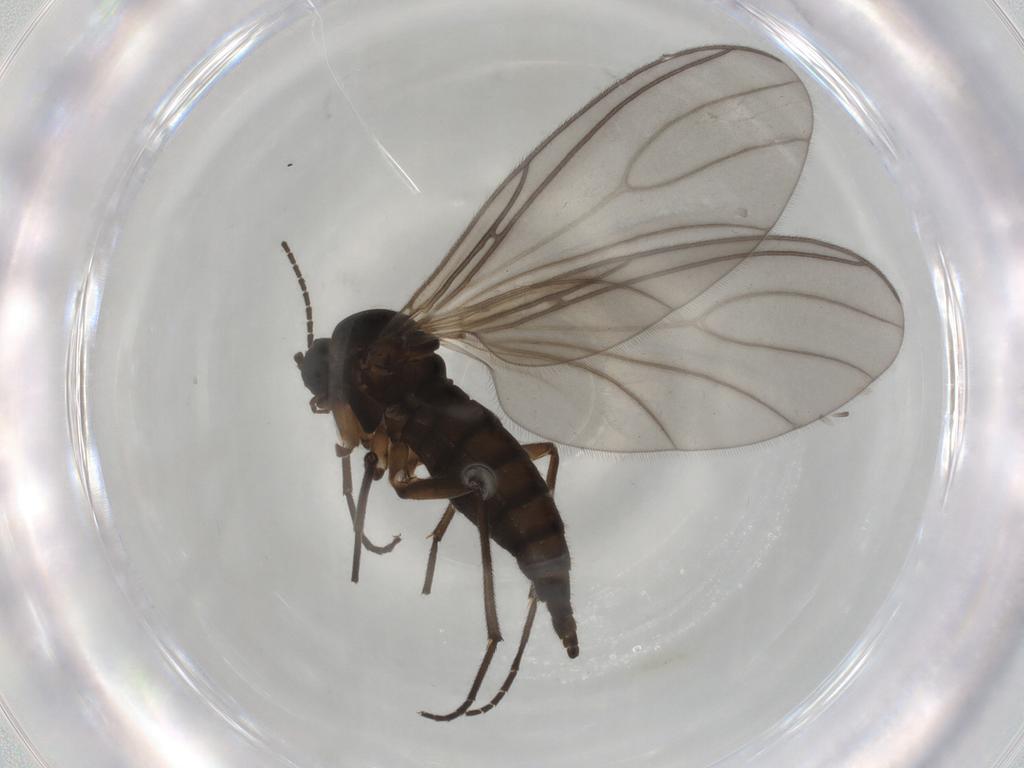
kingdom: Animalia
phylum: Arthropoda
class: Insecta
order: Diptera
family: Sciaridae
